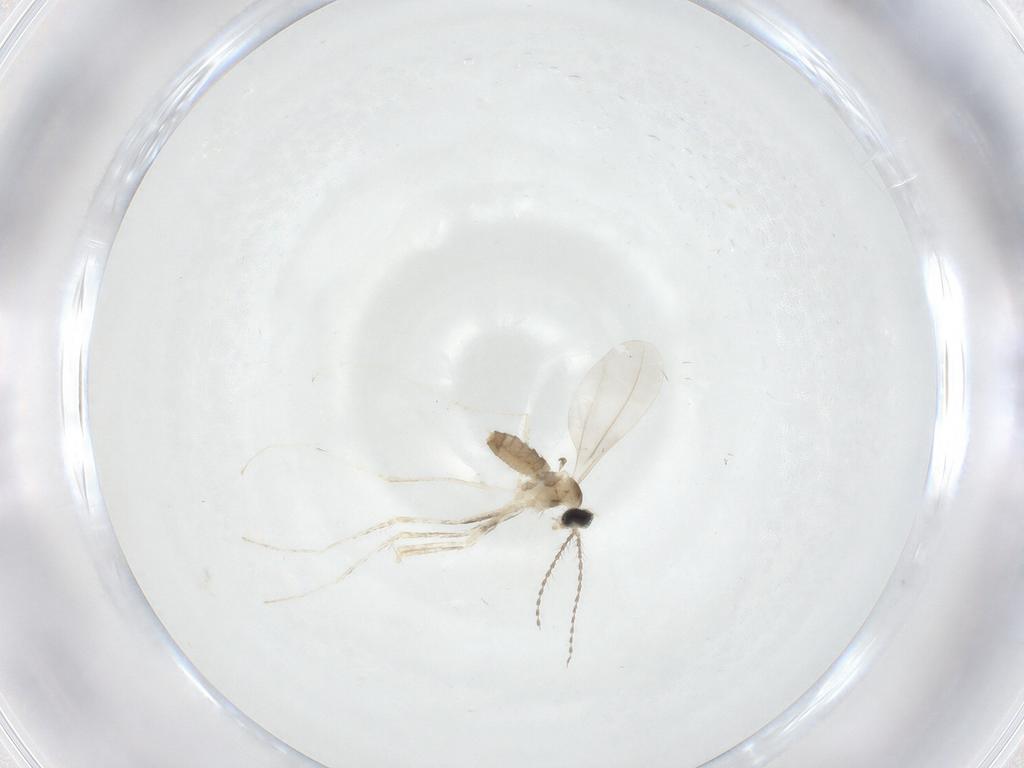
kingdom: Animalia
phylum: Arthropoda
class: Insecta
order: Diptera
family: Cecidomyiidae
